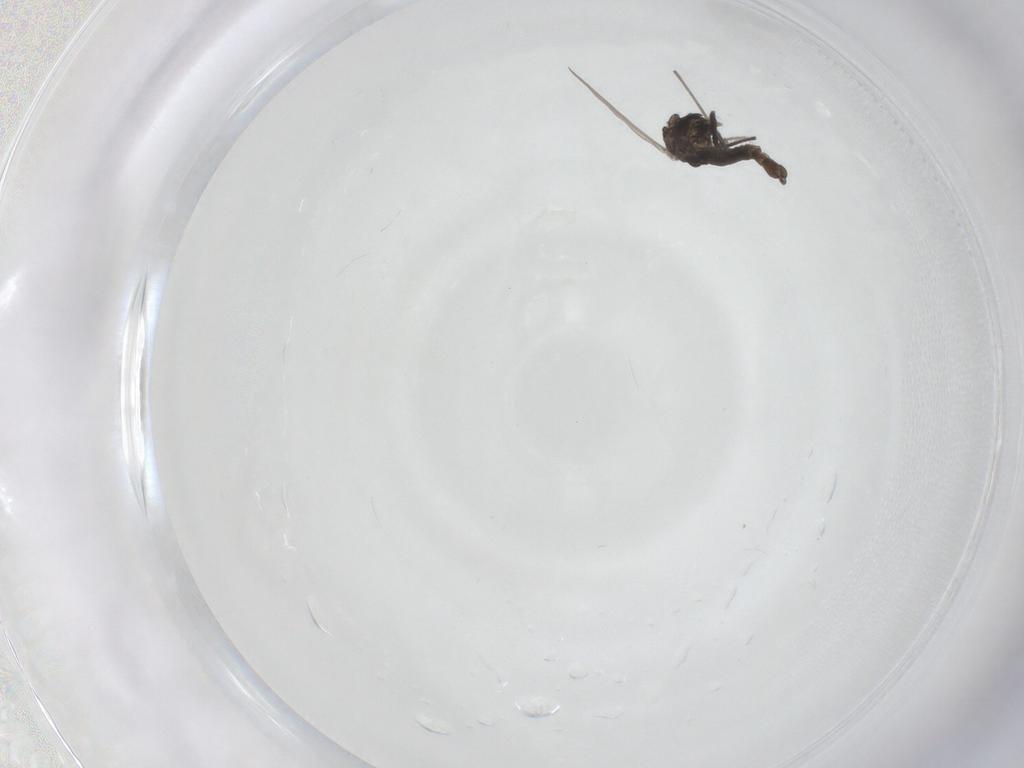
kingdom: Animalia
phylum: Arthropoda
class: Insecta
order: Diptera
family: Chironomidae
